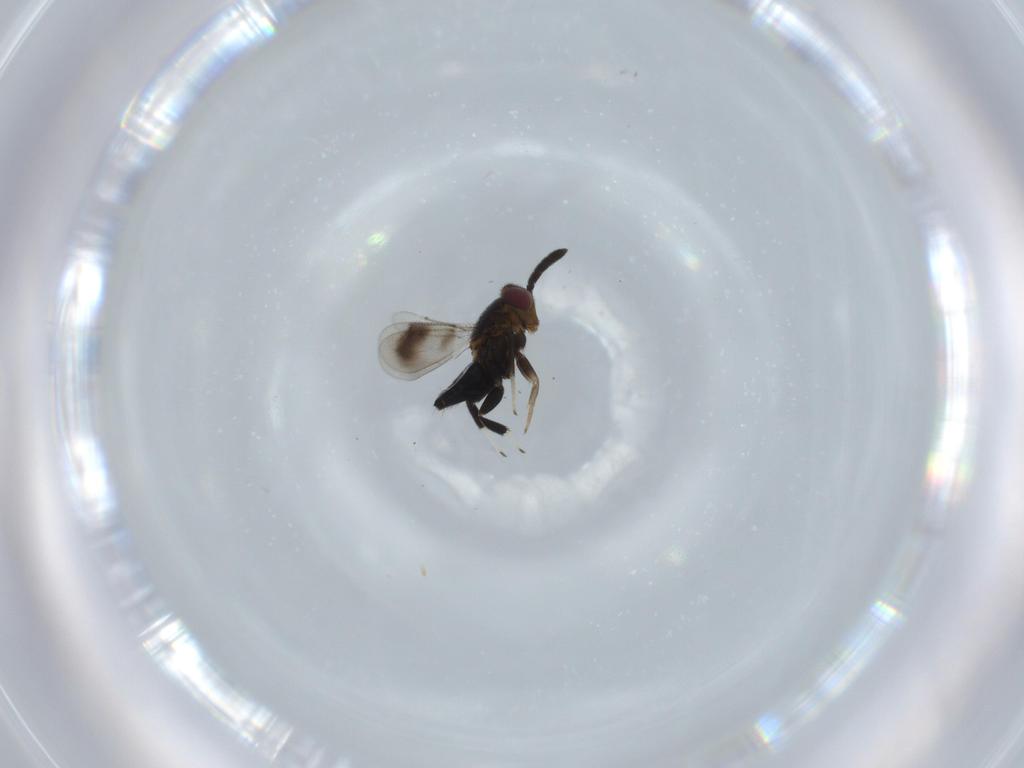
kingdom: Animalia
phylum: Arthropoda
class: Insecta
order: Hymenoptera
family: Aphelinidae
